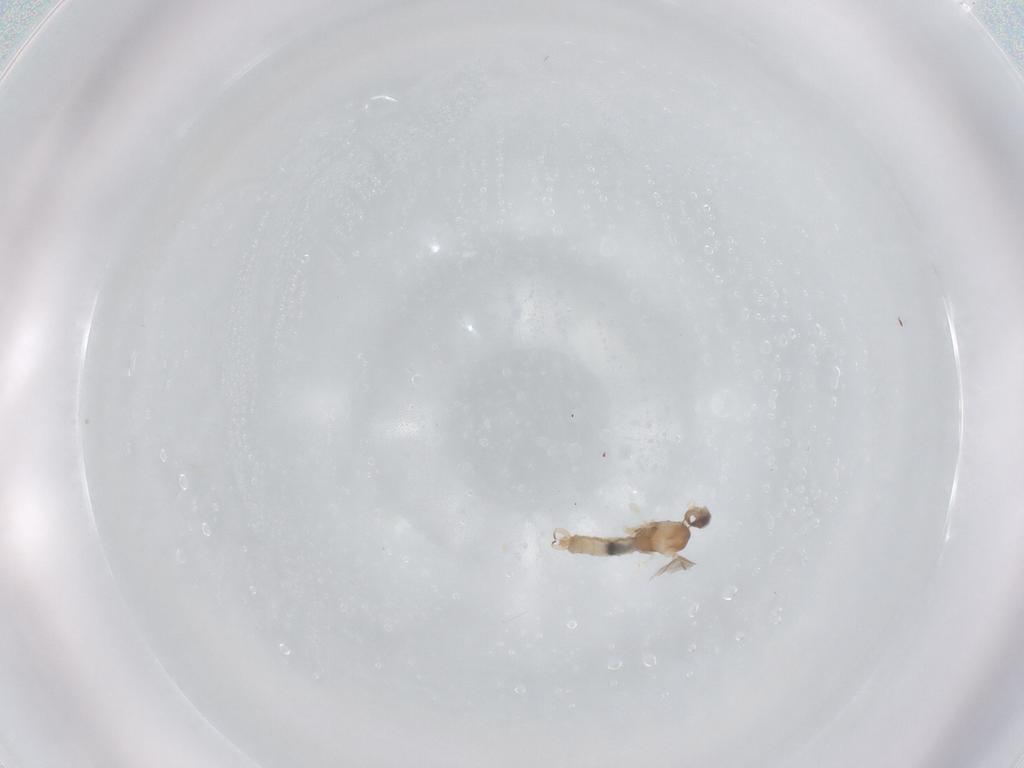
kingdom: Animalia
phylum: Arthropoda
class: Insecta
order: Diptera
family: Cecidomyiidae
